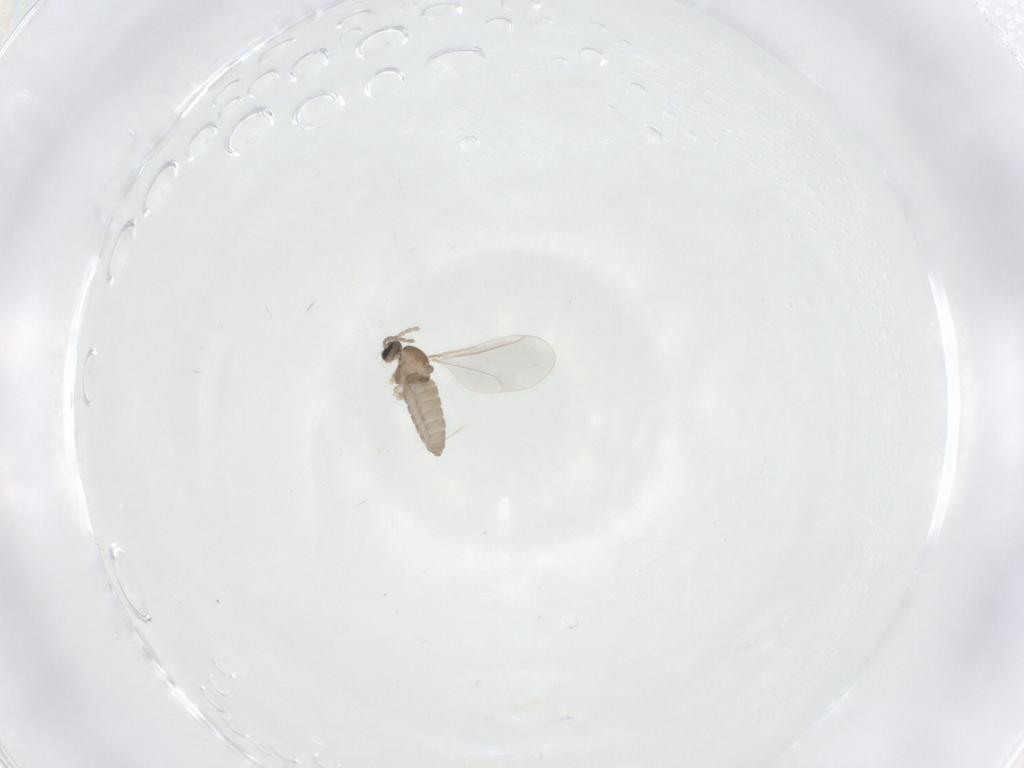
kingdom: Animalia
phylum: Arthropoda
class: Insecta
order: Diptera
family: Cecidomyiidae
